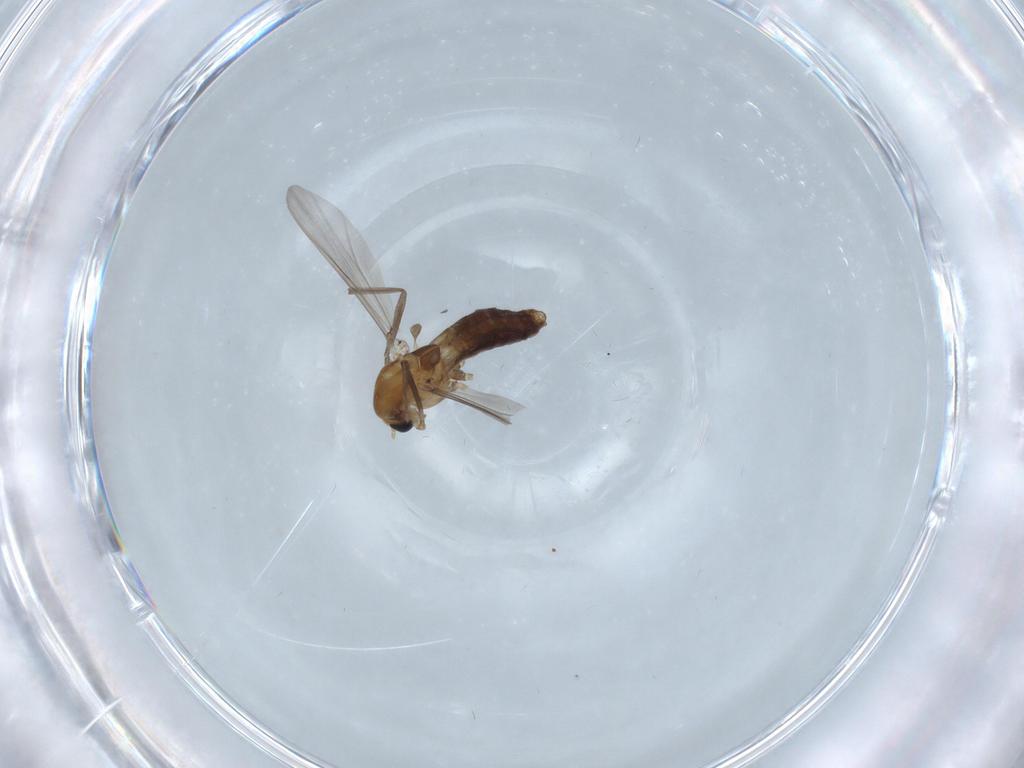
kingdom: Animalia
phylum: Arthropoda
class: Insecta
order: Diptera
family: Chironomidae
